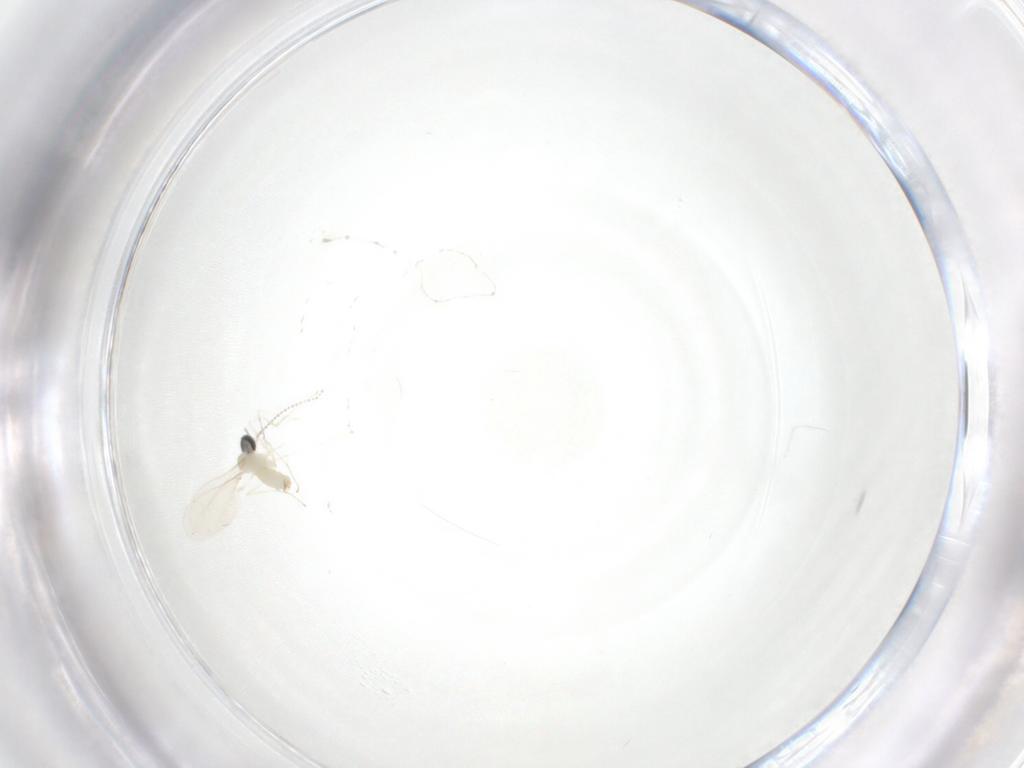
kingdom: Animalia
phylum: Arthropoda
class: Insecta
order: Diptera
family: Cecidomyiidae
